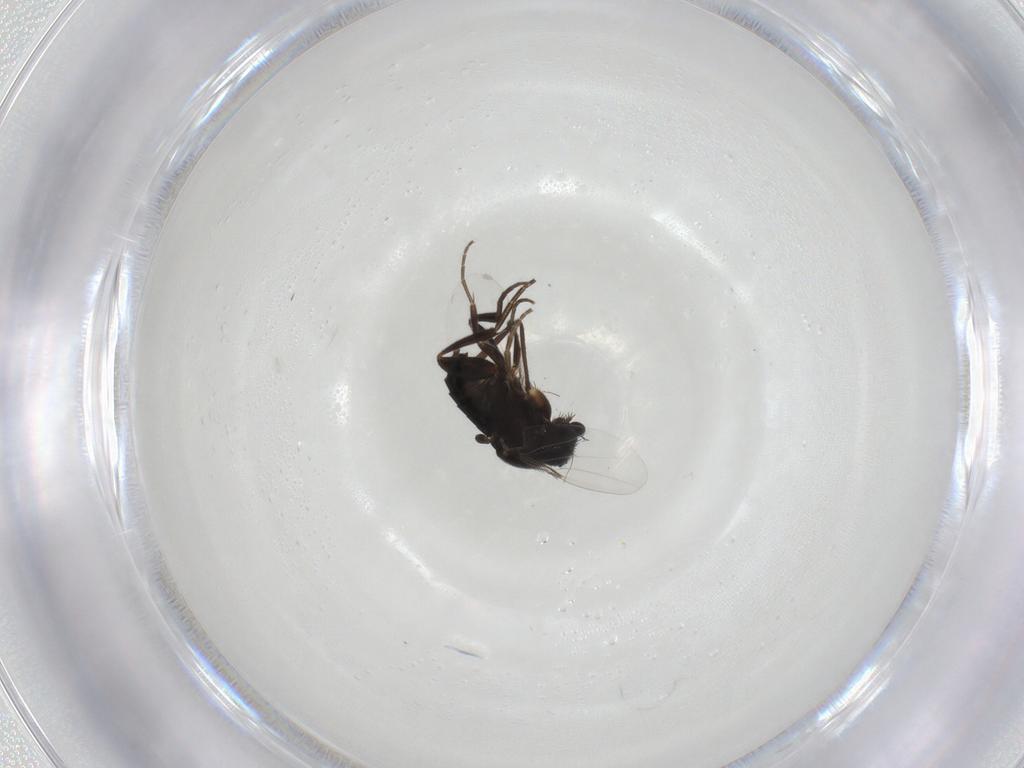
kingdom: Animalia
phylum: Arthropoda
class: Insecta
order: Diptera
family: Phoridae
